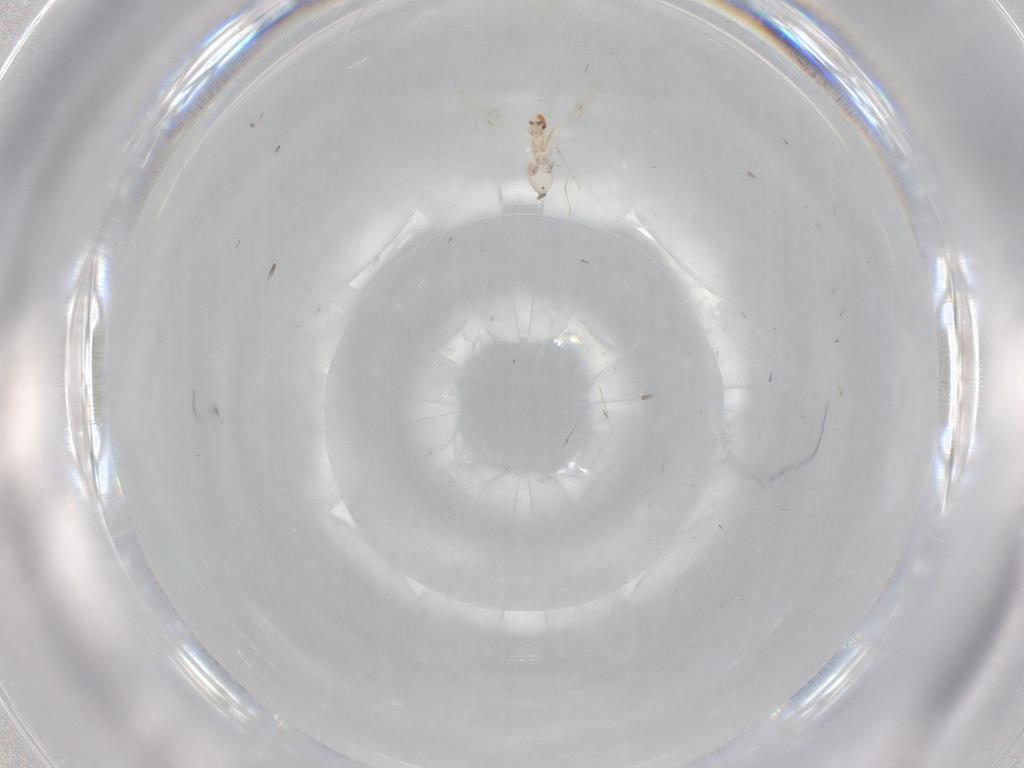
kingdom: Animalia
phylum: Arthropoda
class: Insecta
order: Diptera
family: Cecidomyiidae
